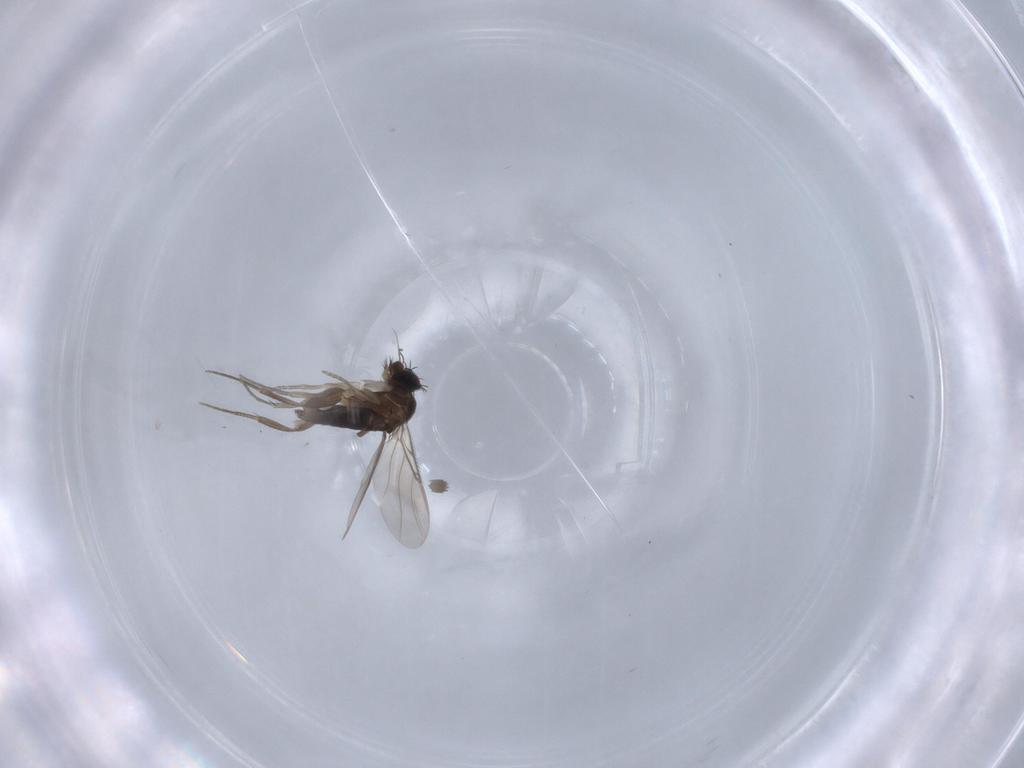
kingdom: Animalia
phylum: Arthropoda
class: Insecta
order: Diptera
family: Phoridae
